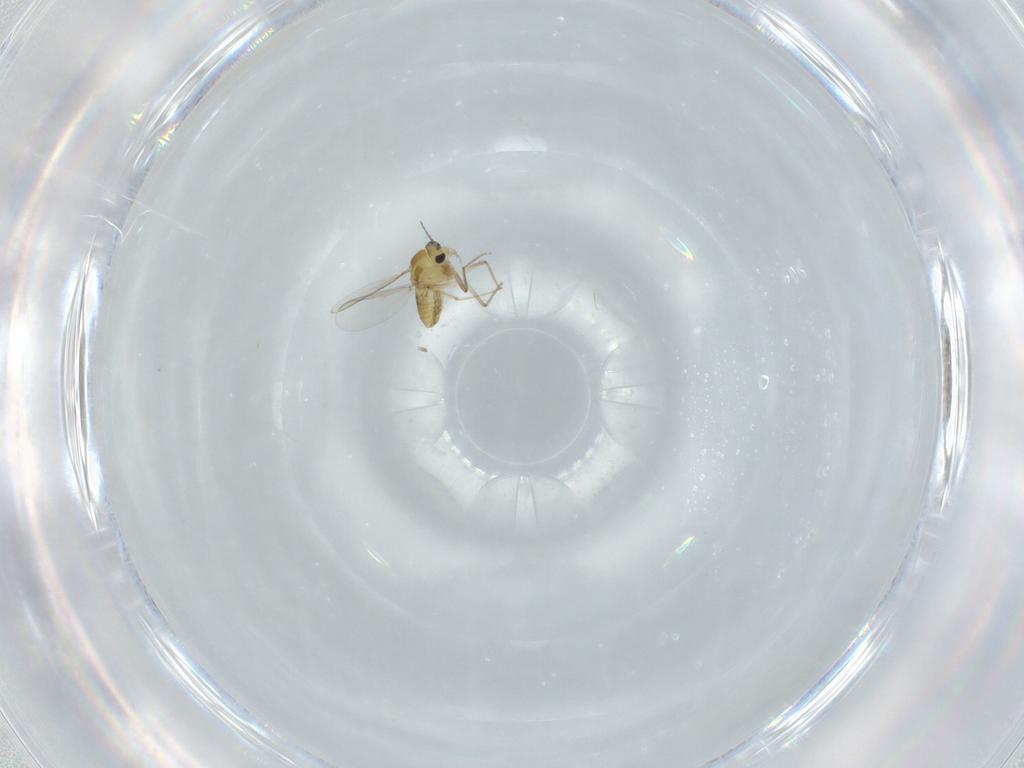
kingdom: Animalia
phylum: Arthropoda
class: Insecta
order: Diptera
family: Chironomidae
